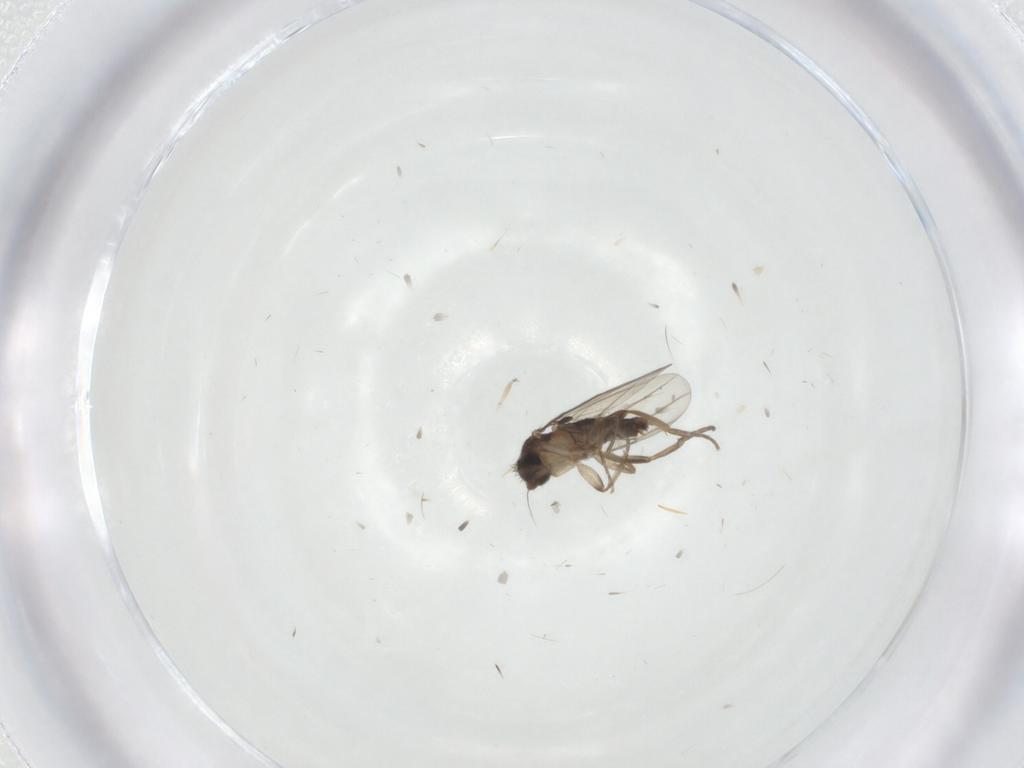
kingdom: Animalia
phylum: Arthropoda
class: Insecta
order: Diptera
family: Phoridae
